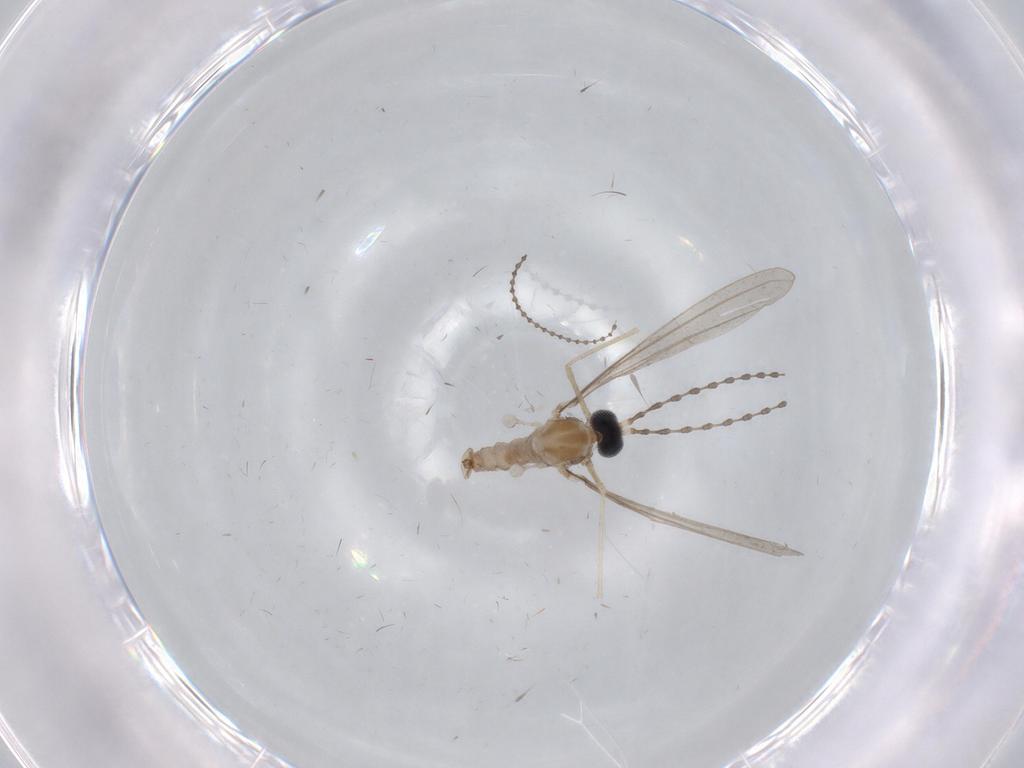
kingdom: Animalia
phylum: Arthropoda
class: Insecta
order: Diptera
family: Cecidomyiidae
